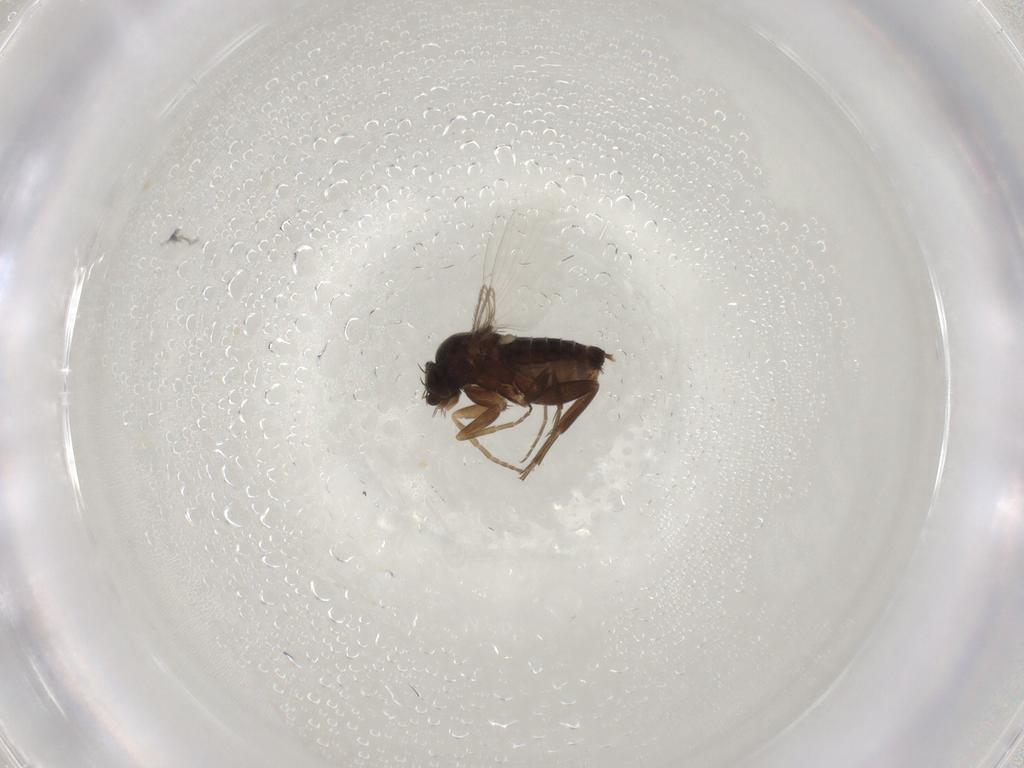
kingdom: Animalia
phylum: Arthropoda
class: Insecta
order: Diptera
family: Phoridae
